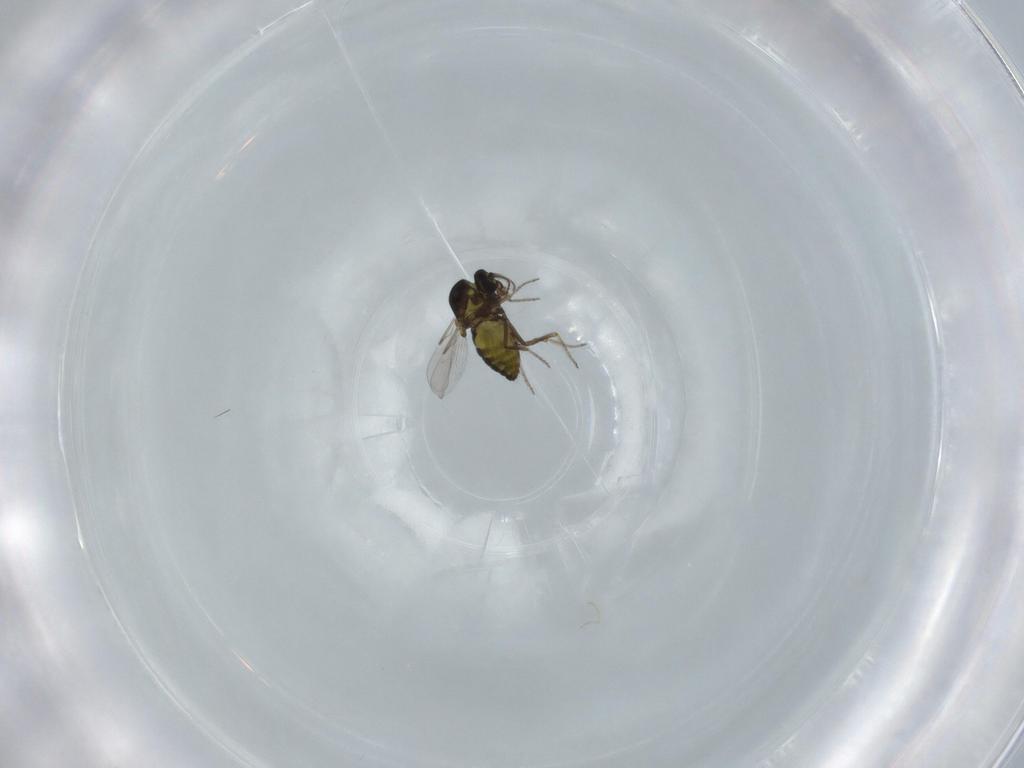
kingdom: Animalia
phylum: Arthropoda
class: Insecta
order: Diptera
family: Ceratopogonidae
